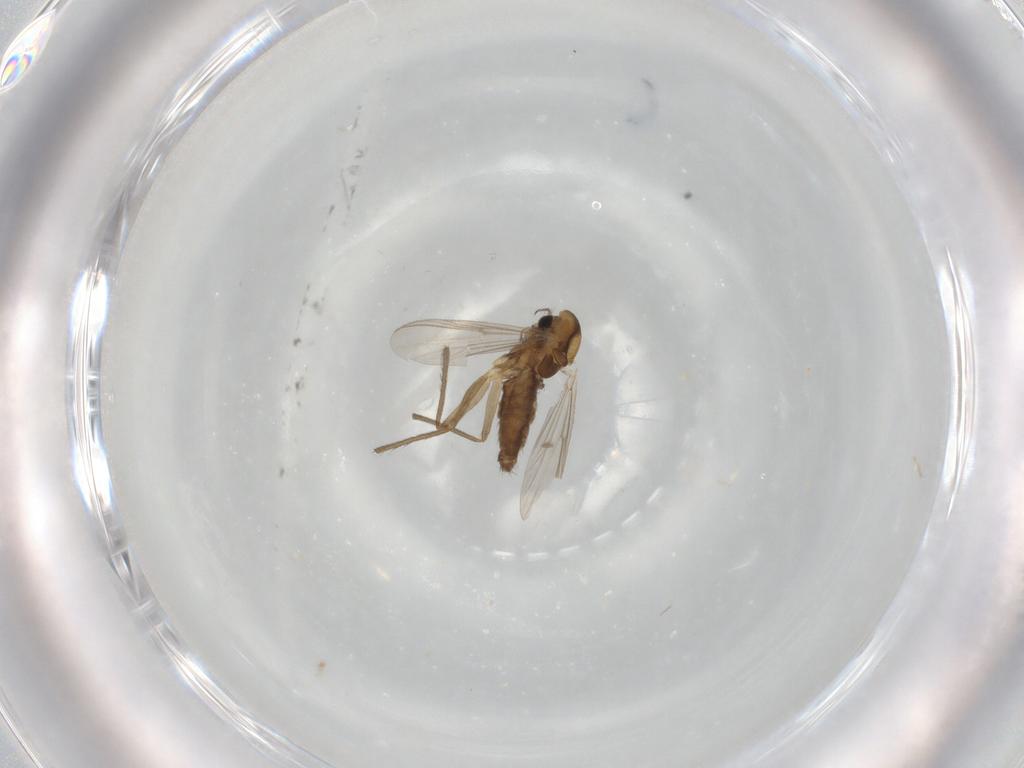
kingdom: Animalia
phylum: Arthropoda
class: Insecta
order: Diptera
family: Chironomidae
